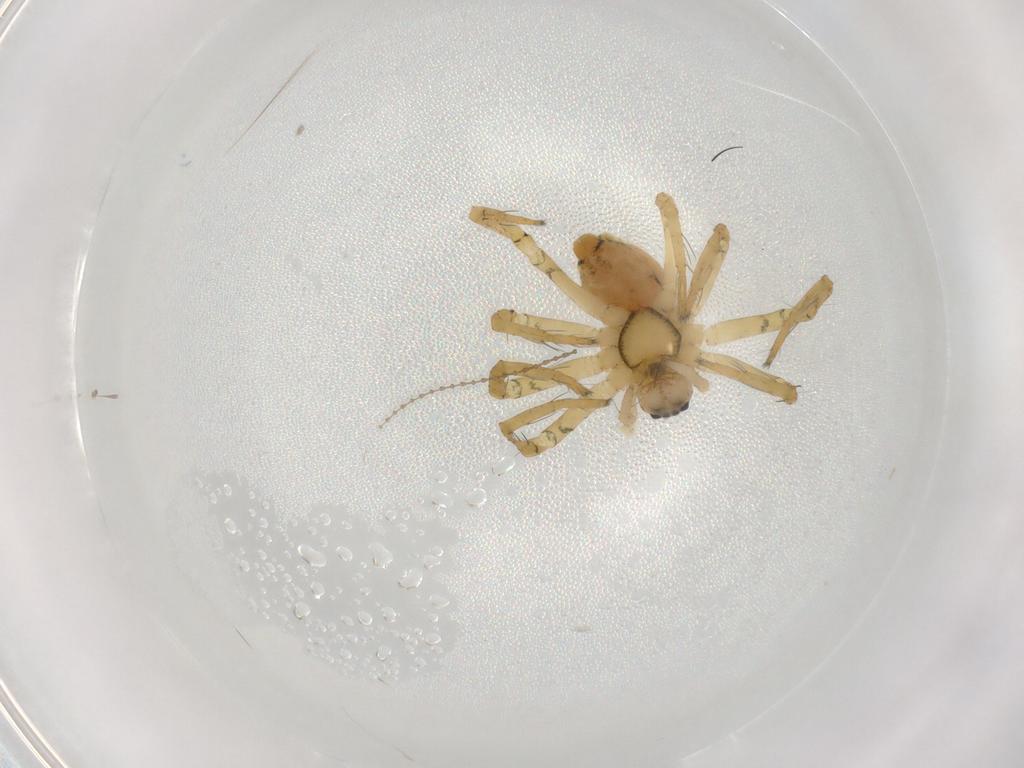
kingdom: Animalia
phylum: Arthropoda
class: Arachnida
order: Araneae
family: Pisauridae
